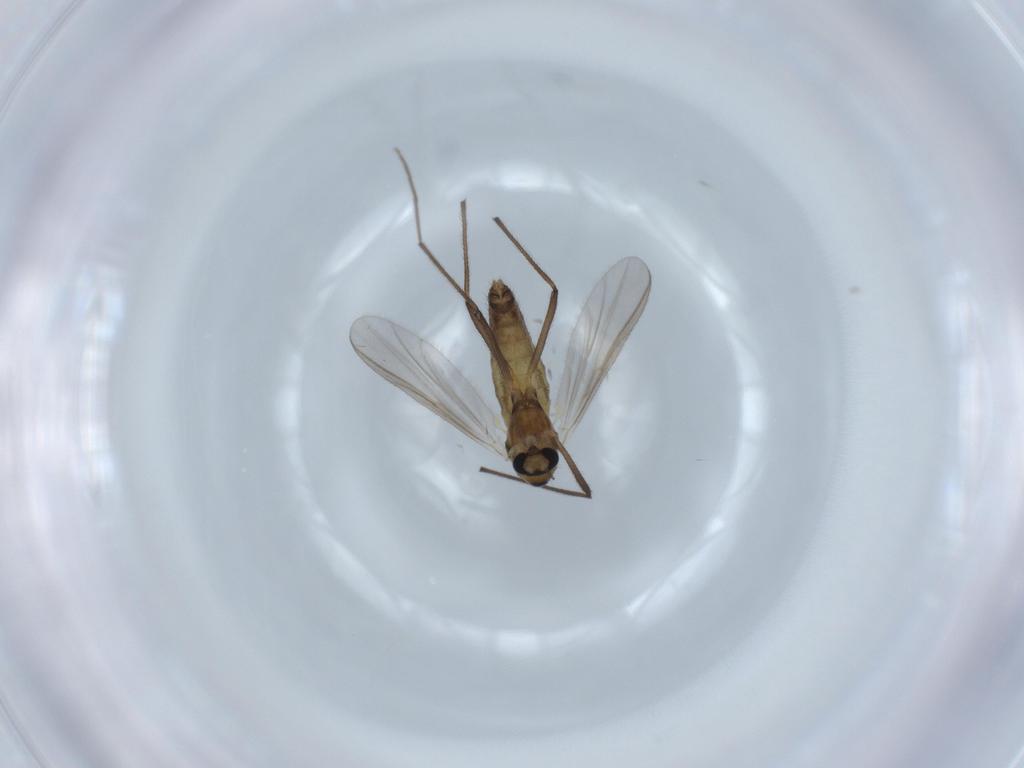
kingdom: Animalia
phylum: Arthropoda
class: Insecta
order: Diptera
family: Chironomidae
